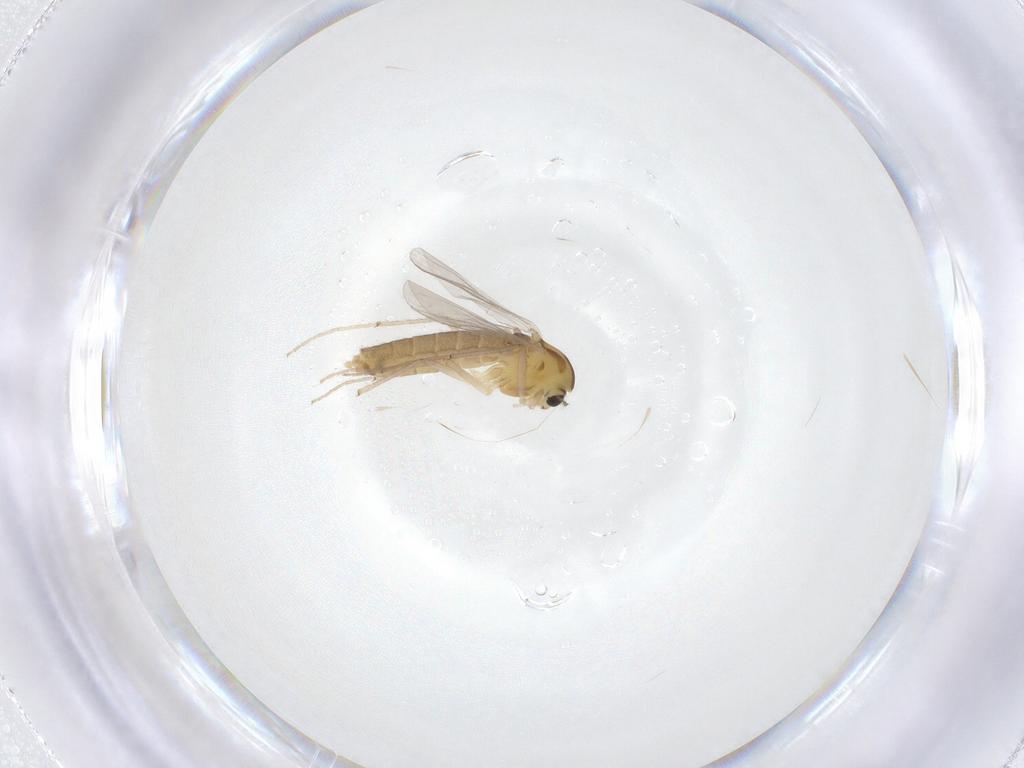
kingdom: Animalia
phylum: Arthropoda
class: Insecta
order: Diptera
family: Chironomidae
